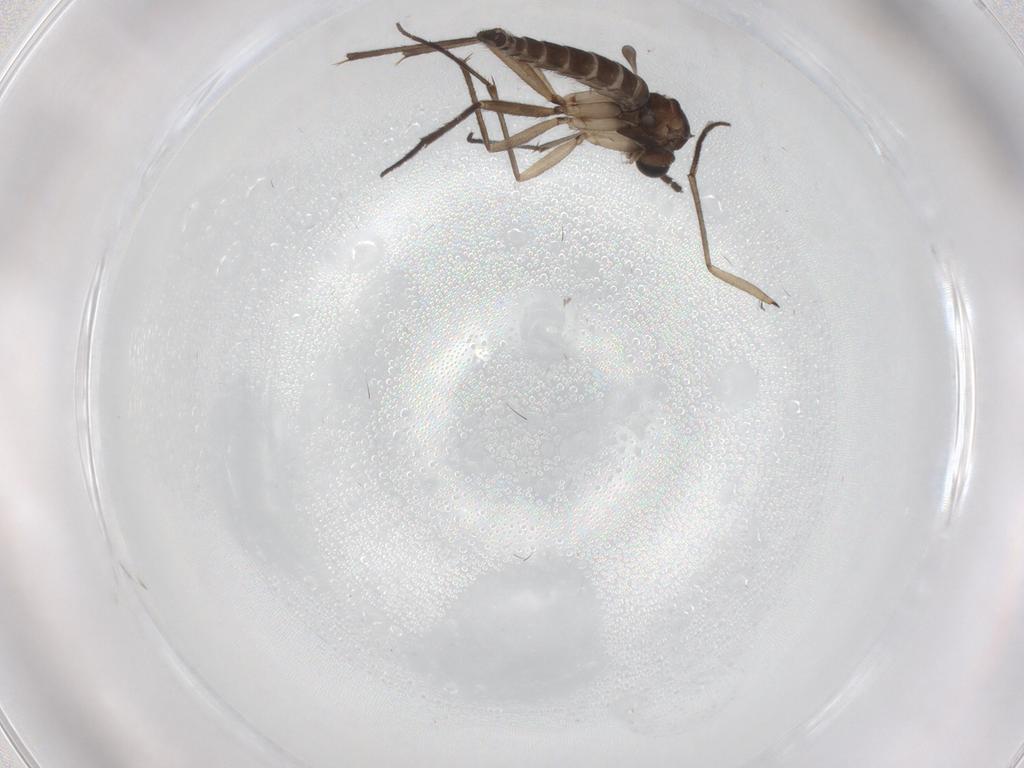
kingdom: Animalia
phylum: Arthropoda
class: Insecta
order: Diptera
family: Sciaridae
